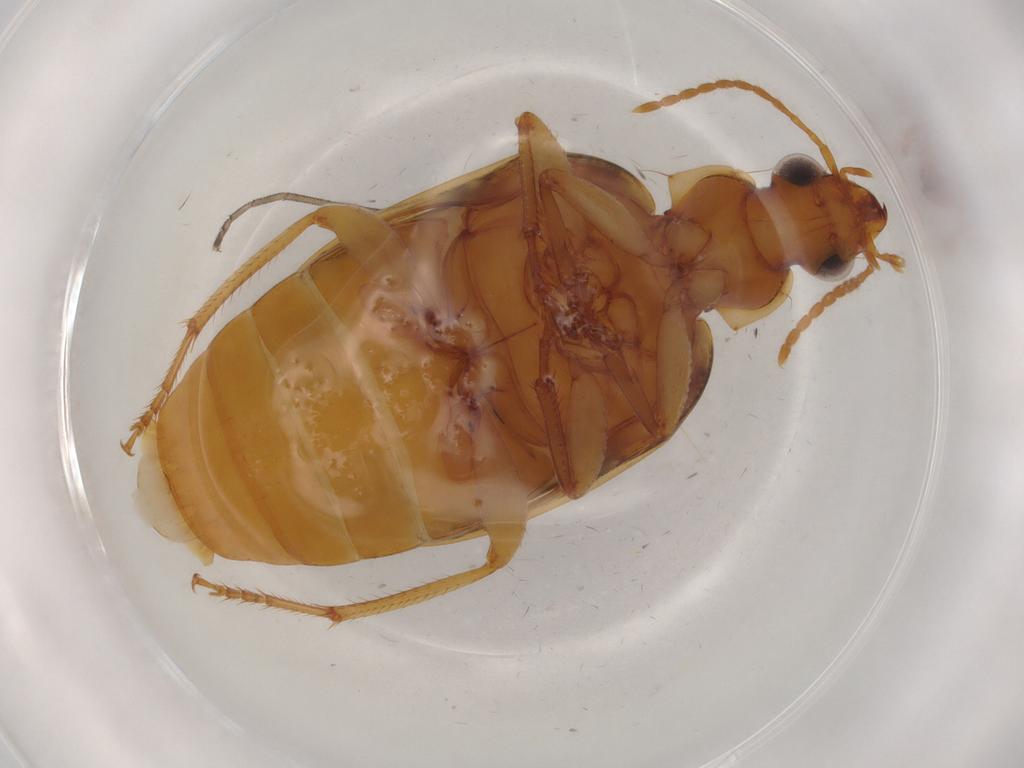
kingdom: Animalia
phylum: Arthropoda
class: Insecta
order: Coleoptera
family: Carabidae
